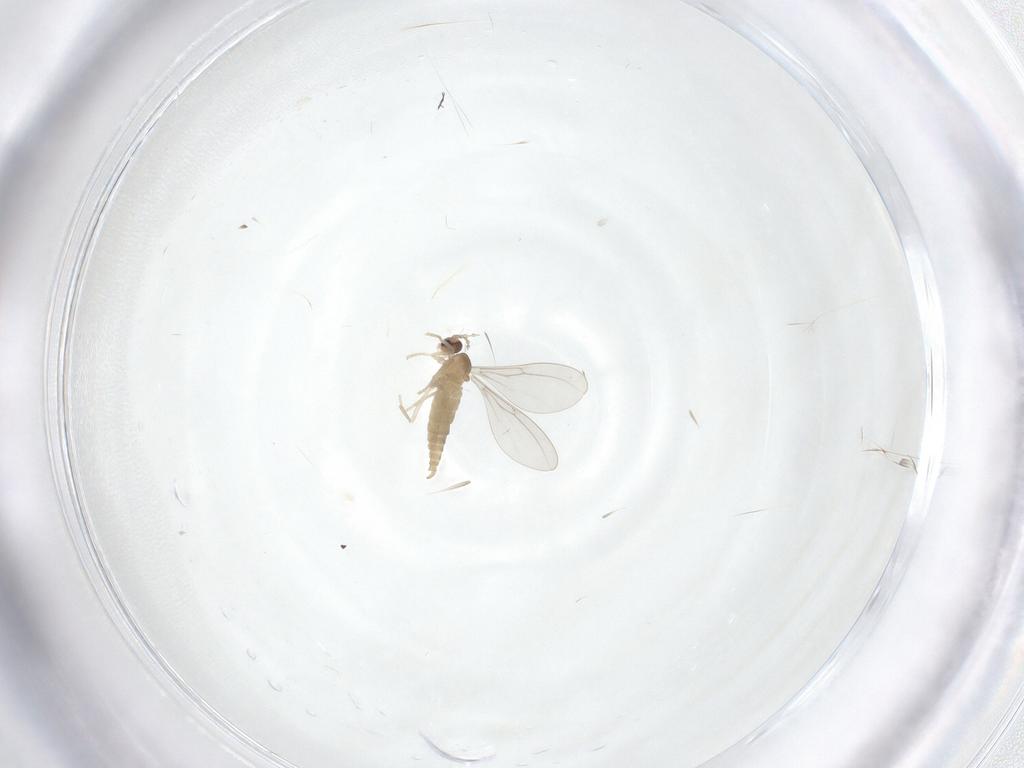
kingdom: Animalia
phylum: Arthropoda
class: Insecta
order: Diptera
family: Cecidomyiidae
